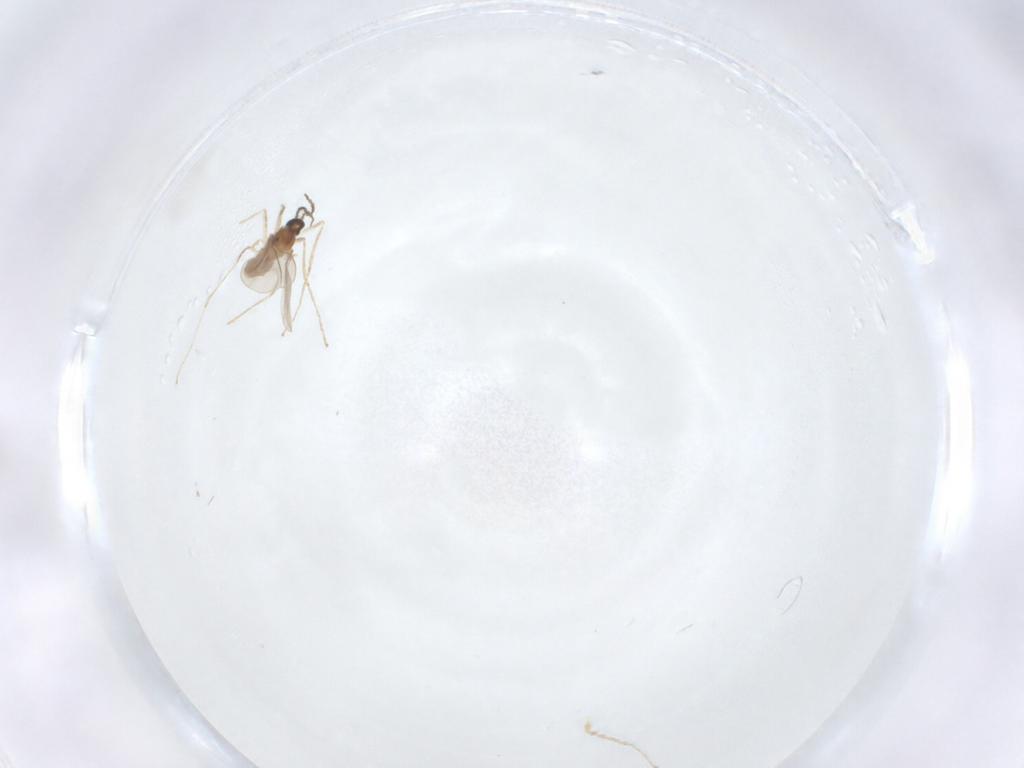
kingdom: Animalia
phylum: Arthropoda
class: Insecta
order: Diptera
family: Cecidomyiidae
